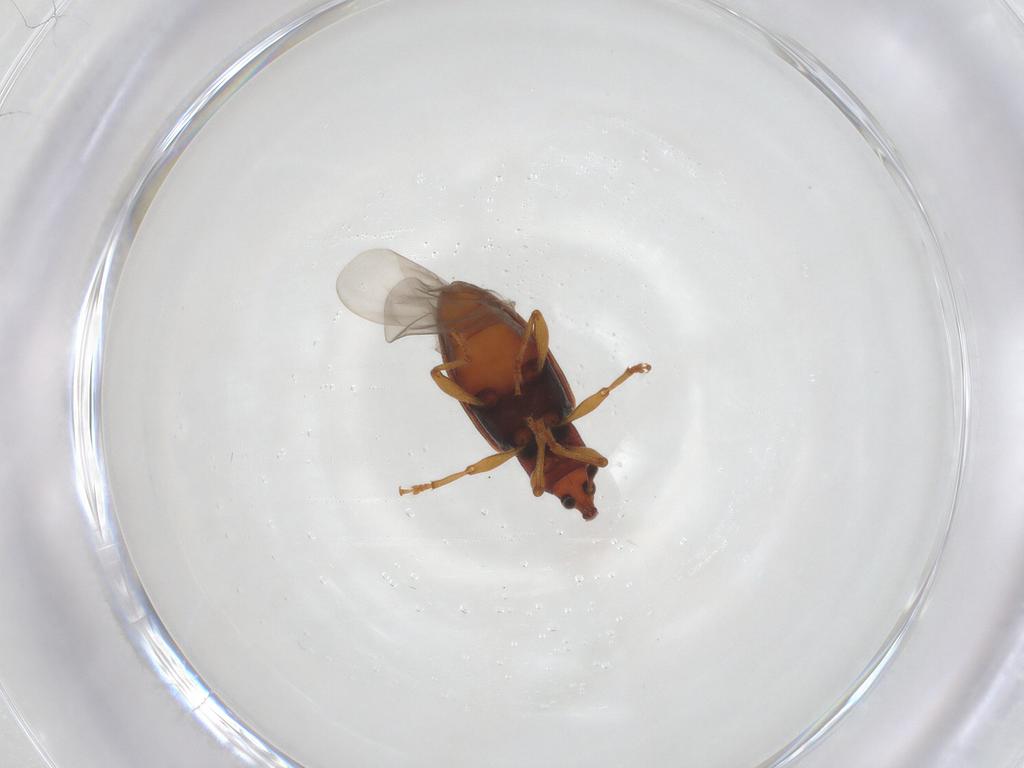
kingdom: Animalia
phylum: Arthropoda
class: Insecta
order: Coleoptera
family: Curculionidae
